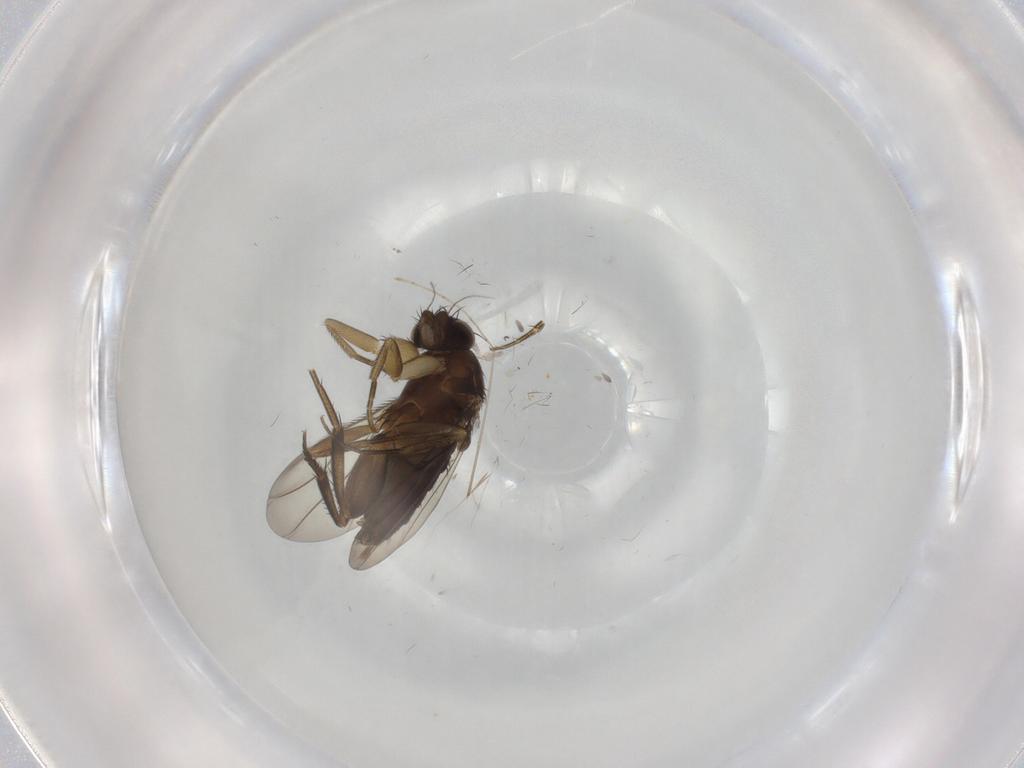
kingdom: Animalia
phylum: Arthropoda
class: Insecta
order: Diptera
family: Phoridae
